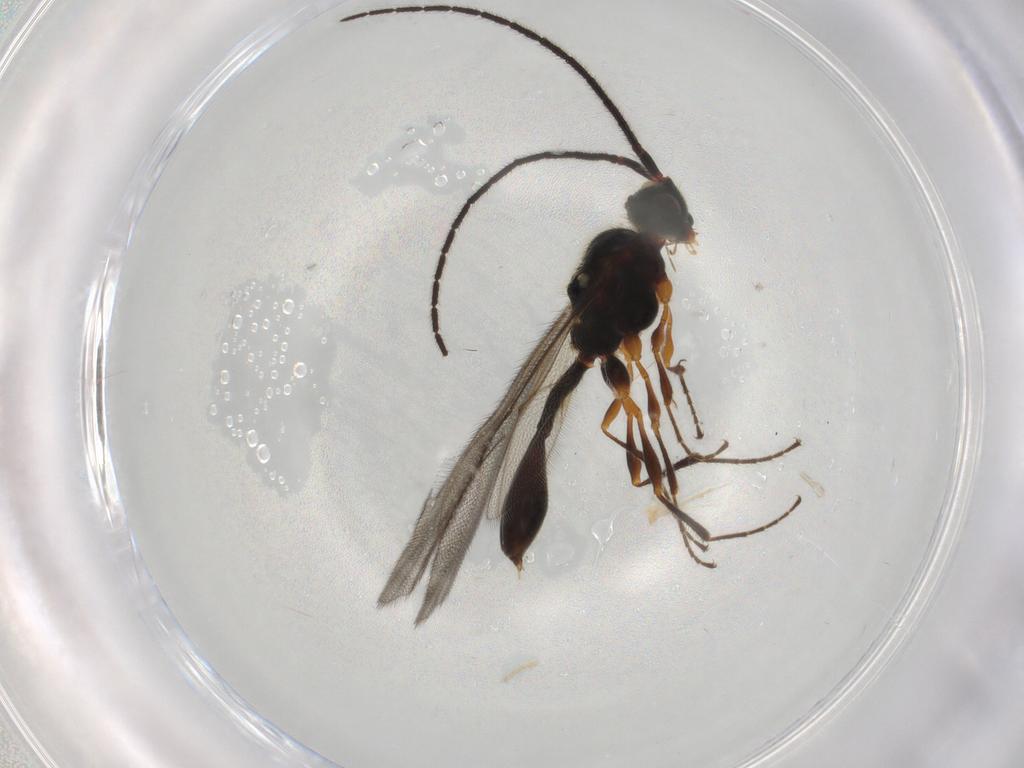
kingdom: Animalia
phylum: Arthropoda
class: Insecta
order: Hymenoptera
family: Diapriidae
